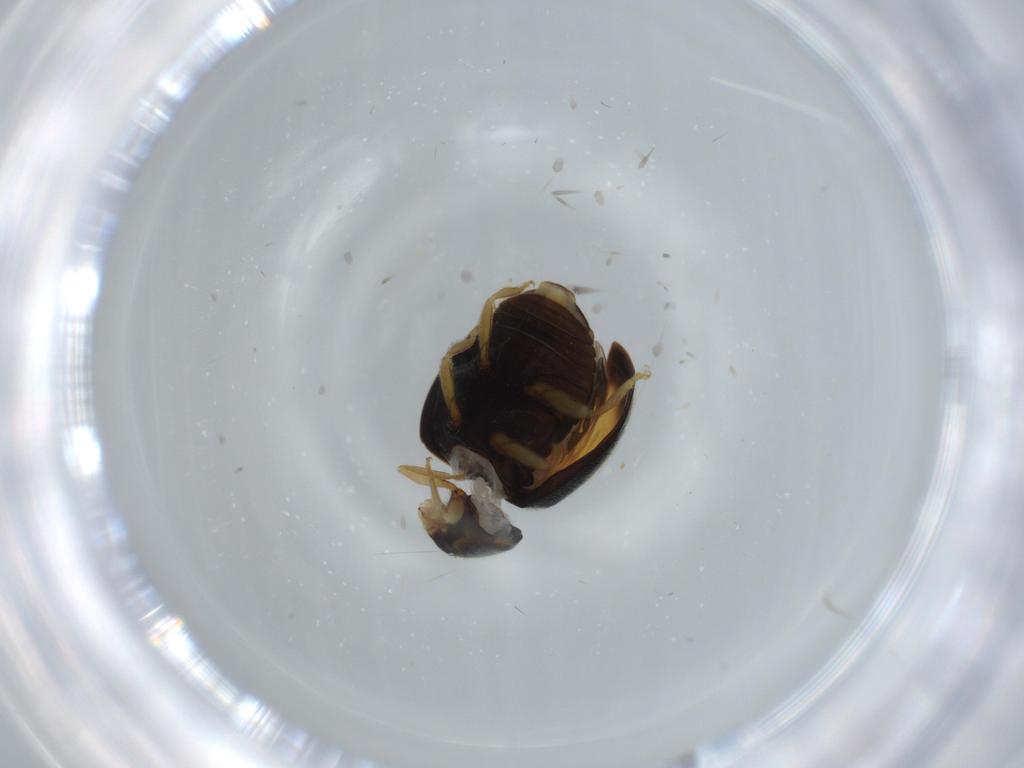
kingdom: Animalia
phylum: Arthropoda
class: Insecta
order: Coleoptera
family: Coccinellidae
